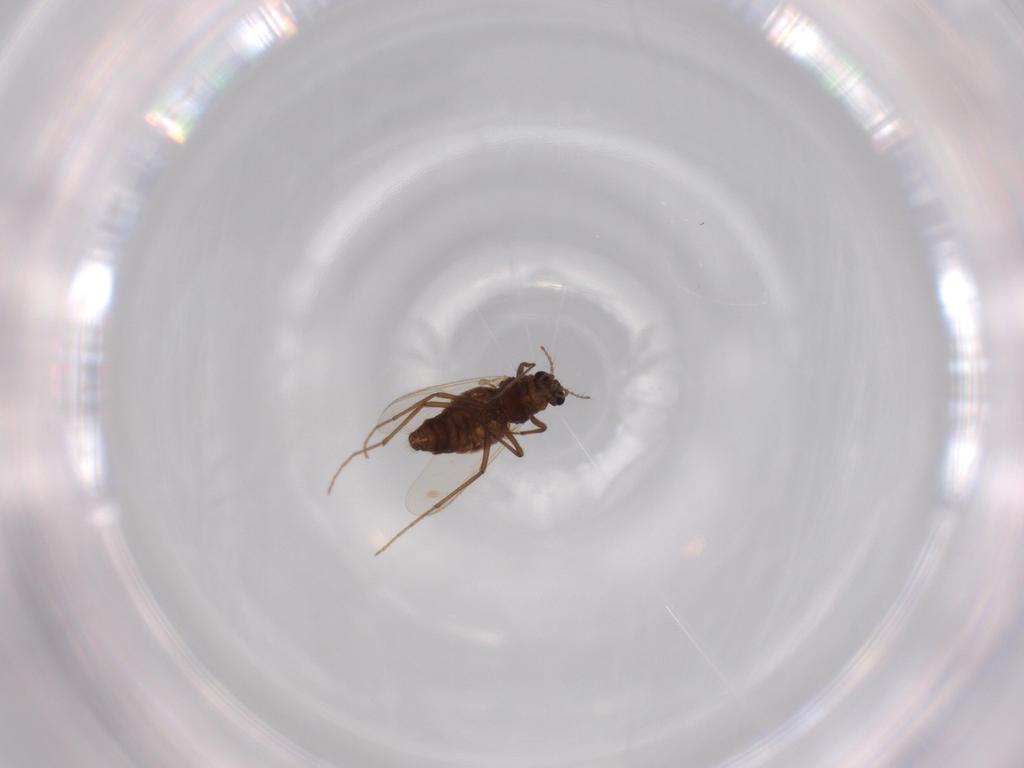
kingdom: Animalia
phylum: Arthropoda
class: Insecta
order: Diptera
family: Chironomidae
